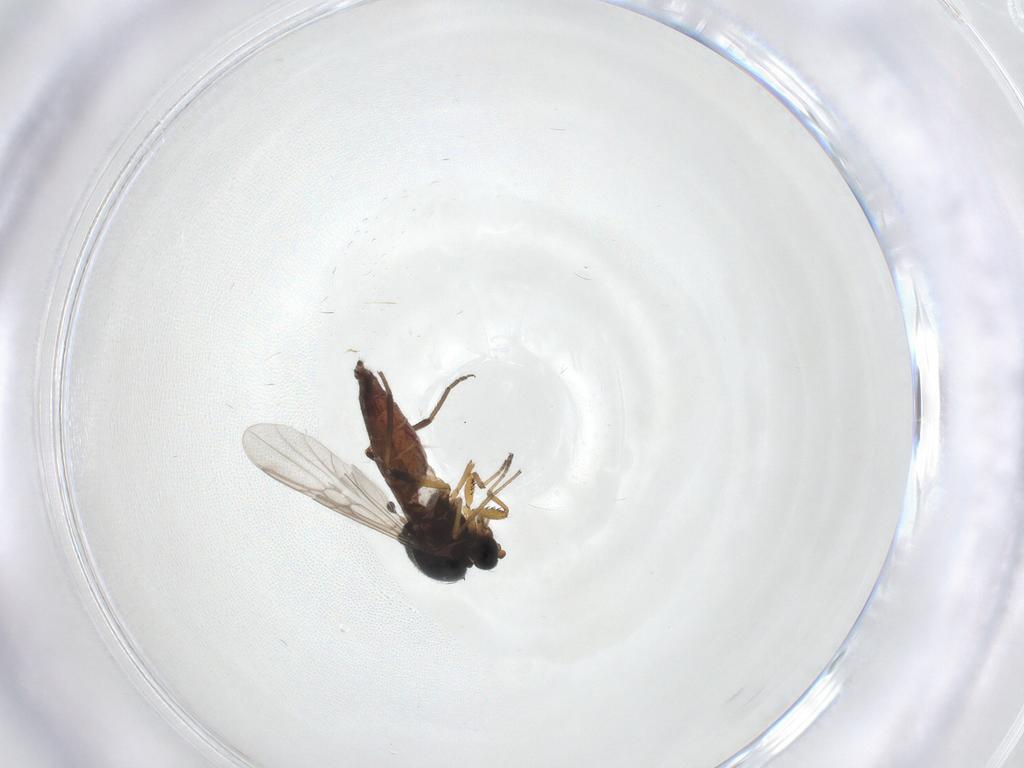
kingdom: Animalia
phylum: Arthropoda
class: Insecta
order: Diptera
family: Ceratopogonidae
